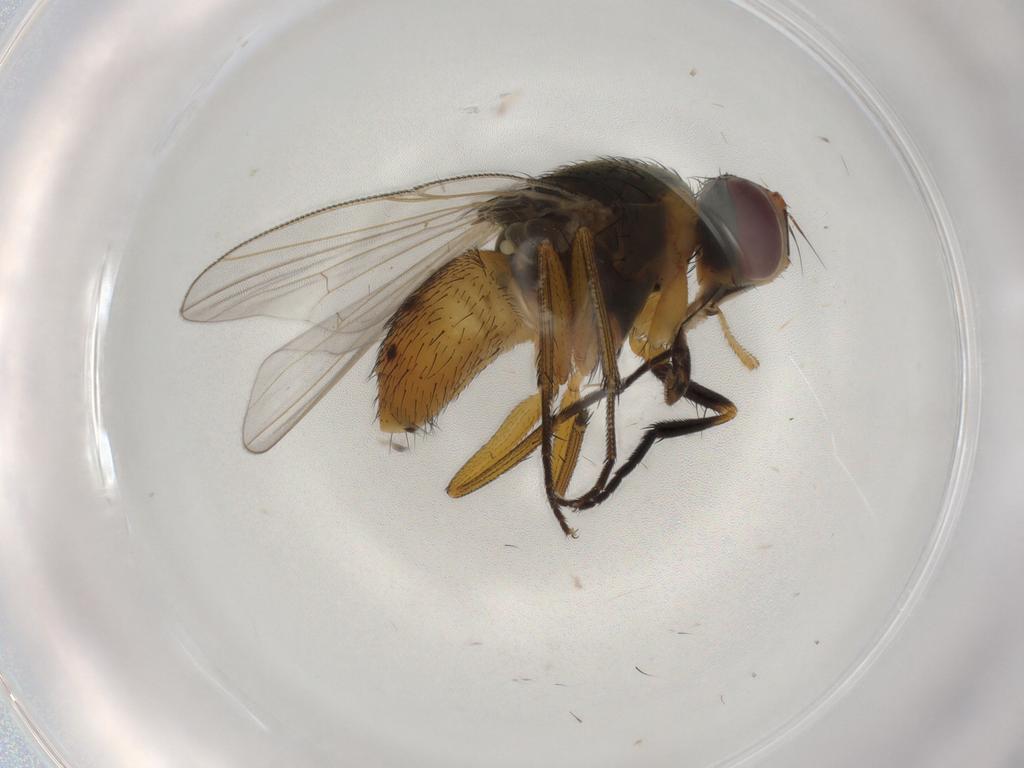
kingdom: Animalia
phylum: Arthropoda
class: Insecta
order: Diptera
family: Muscidae
